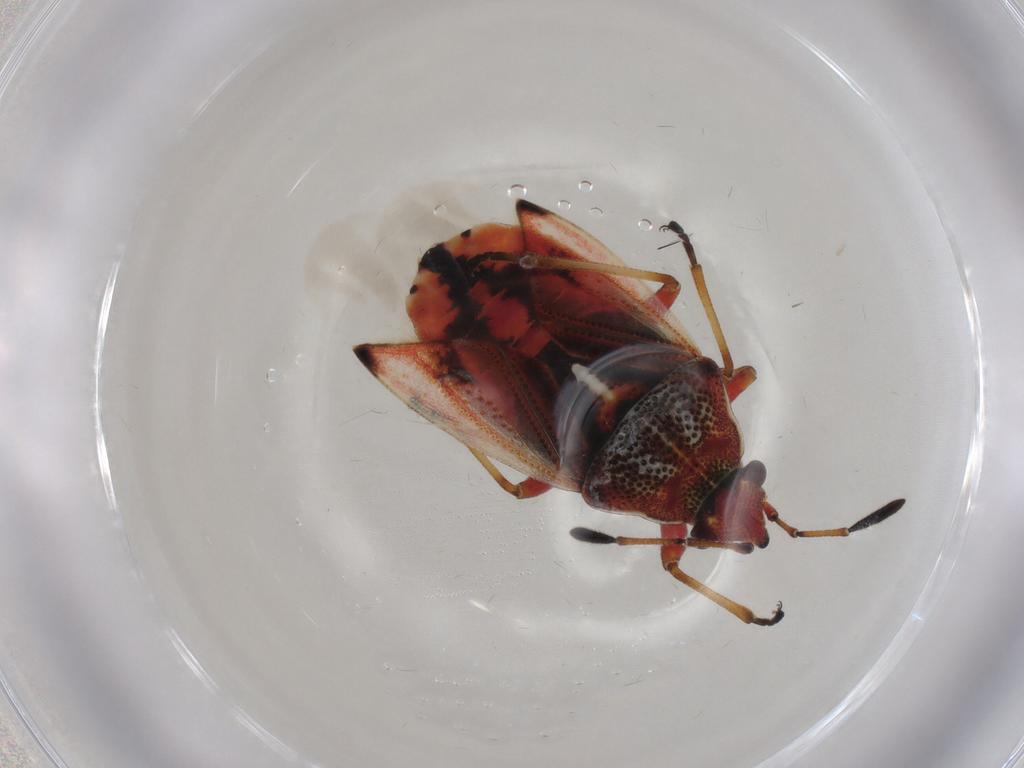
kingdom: Animalia
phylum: Arthropoda
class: Insecta
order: Hemiptera
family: Lygaeidae
